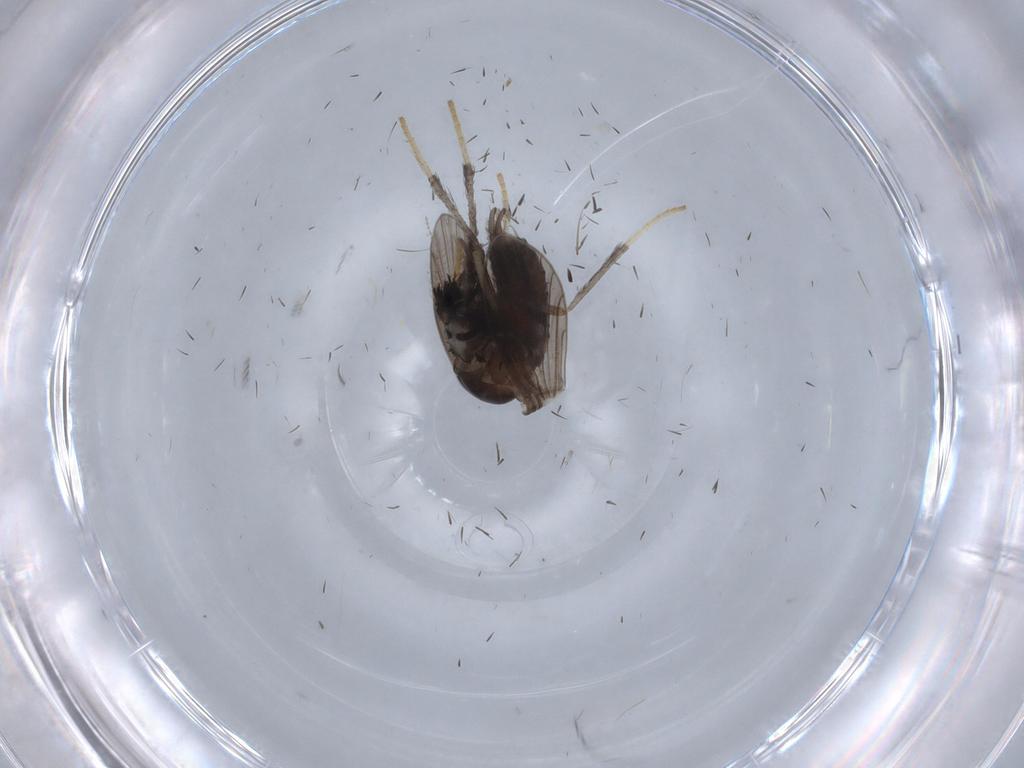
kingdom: Animalia
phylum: Arthropoda
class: Insecta
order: Diptera
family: Psychodidae
